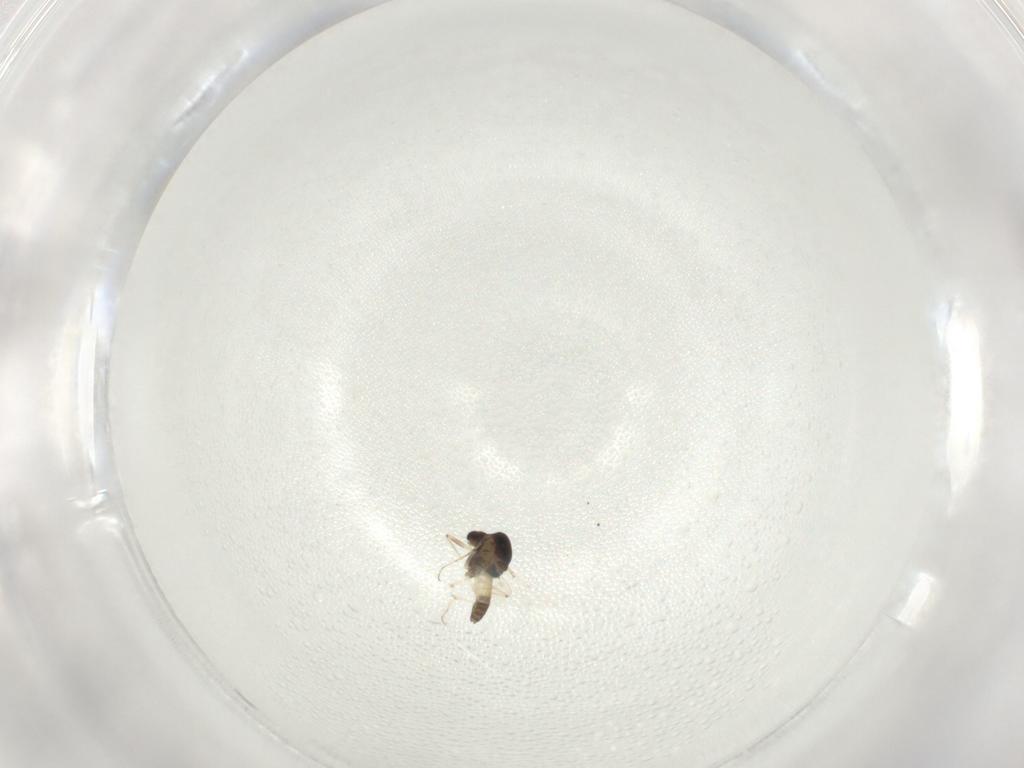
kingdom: Animalia
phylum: Arthropoda
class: Insecta
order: Diptera
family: Chironomidae
